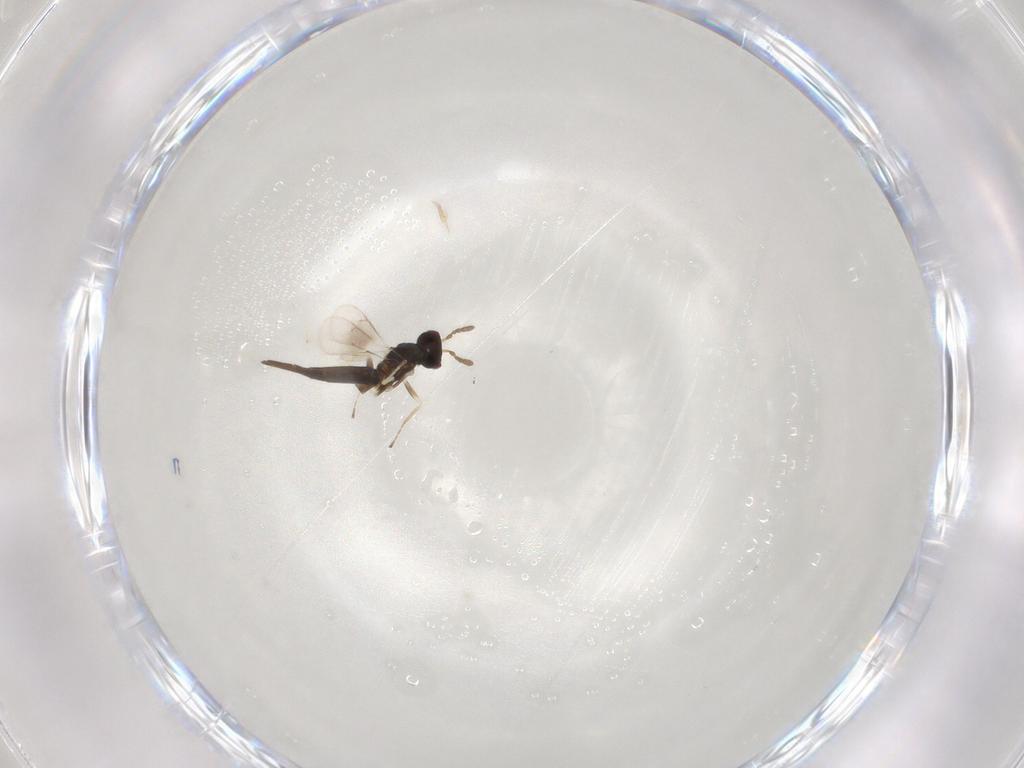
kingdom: Animalia
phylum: Arthropoda
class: Insecta
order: Hymenoptera
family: Eulophidae
